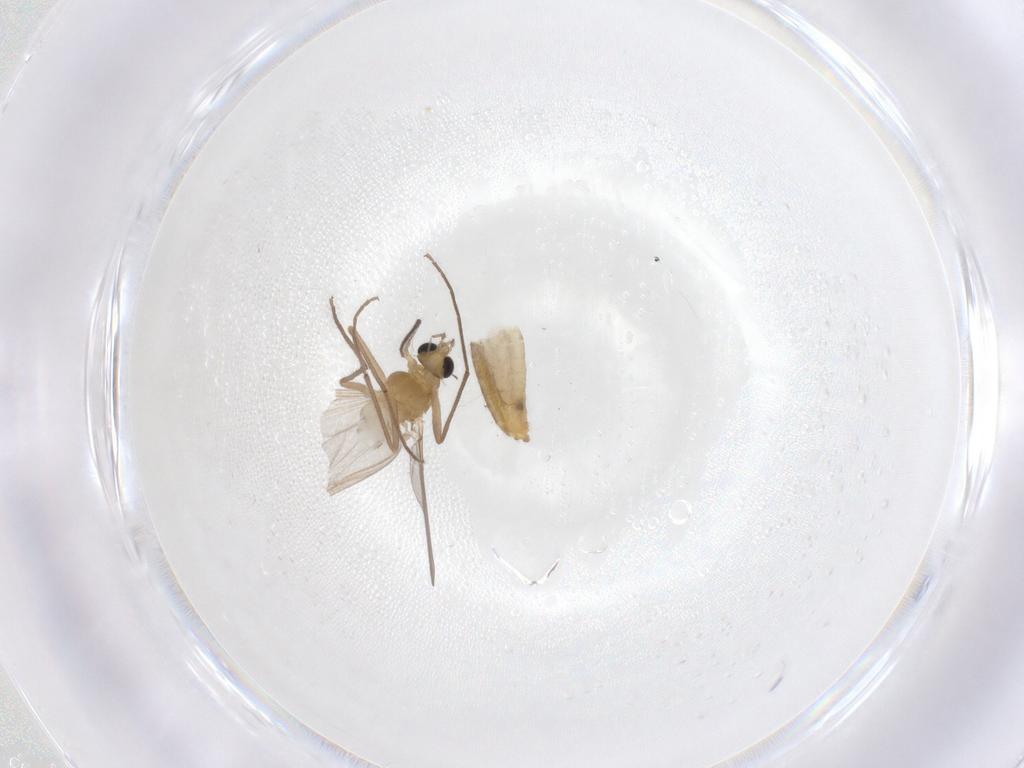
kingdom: Animalia
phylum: Arthropoda
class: Insecta
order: Diptera
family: Chironomidae
